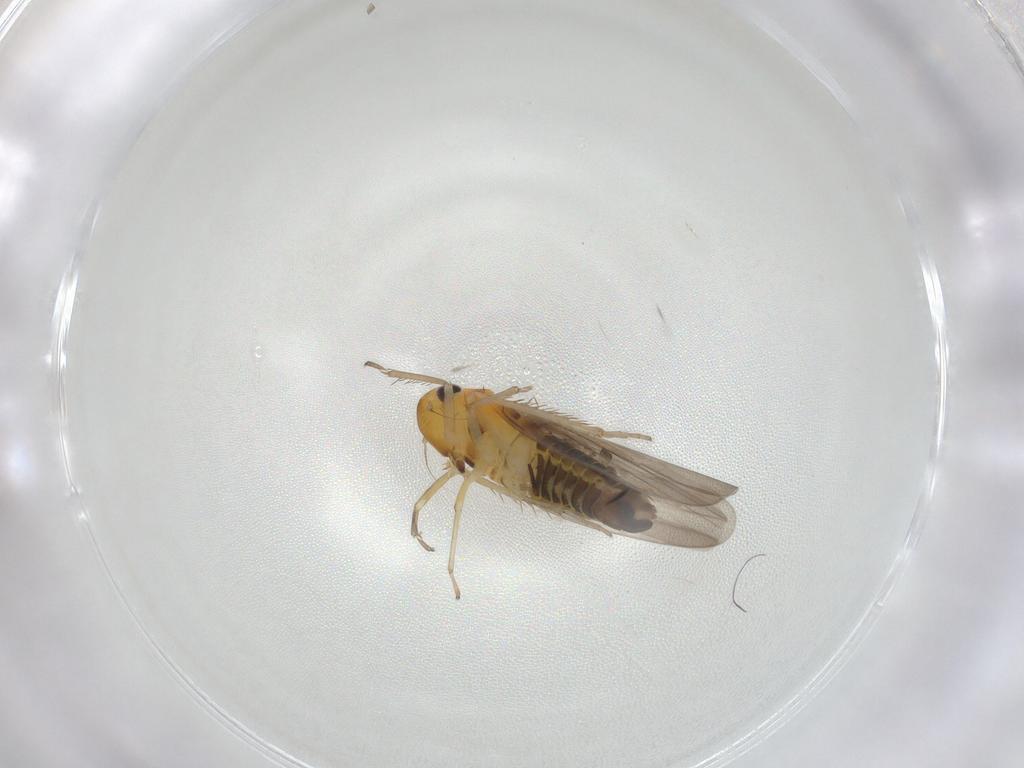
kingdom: Animalia
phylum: Arthropoda
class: Insecta
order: Hemiptera
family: Cicadellidae
